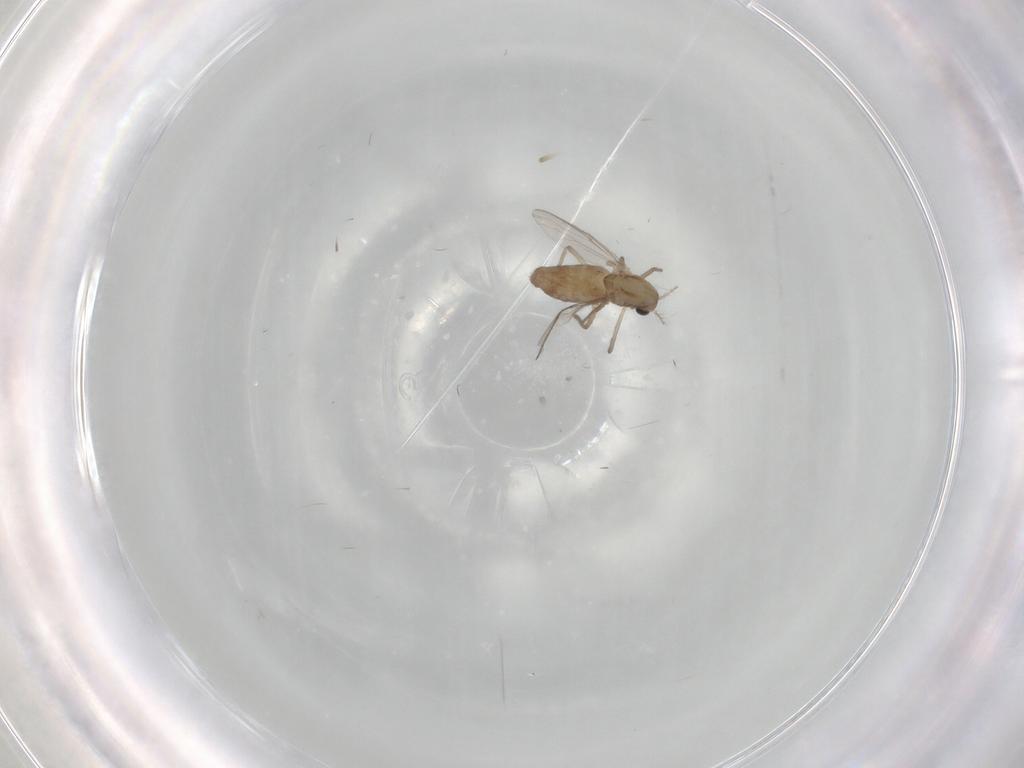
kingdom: Animalia
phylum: Arthropoda
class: Insecta
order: Diptera
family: Chironomidae
